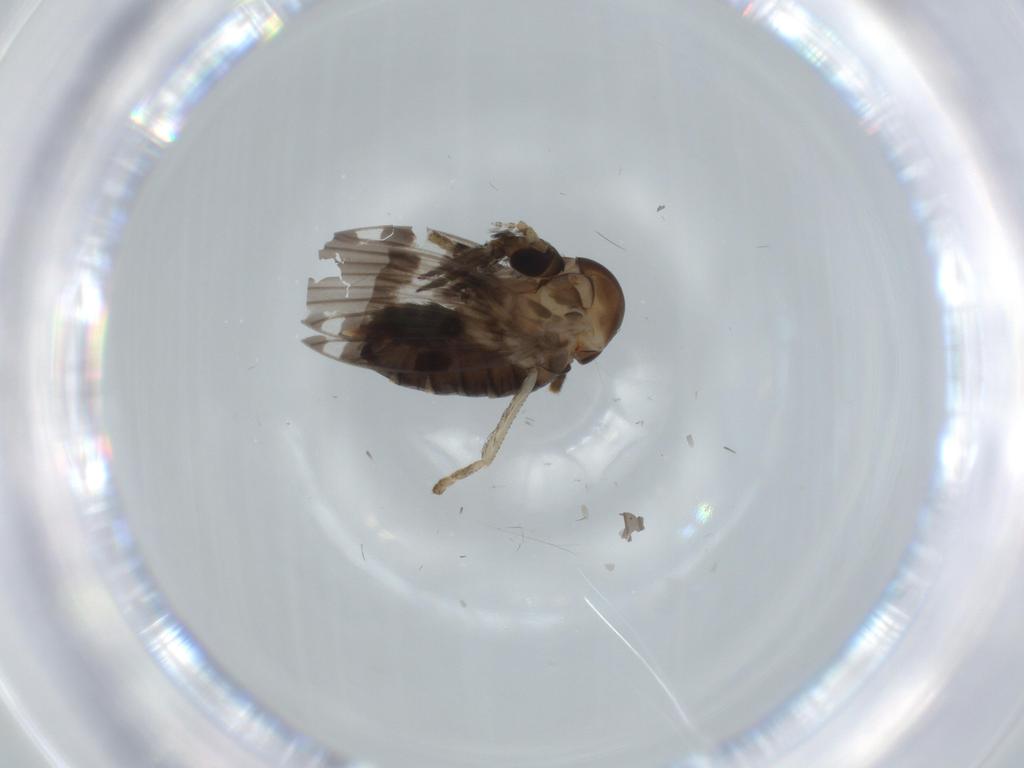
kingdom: Animalia
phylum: Arthropoda
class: Insecta
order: Diptera
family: Psychodidae
